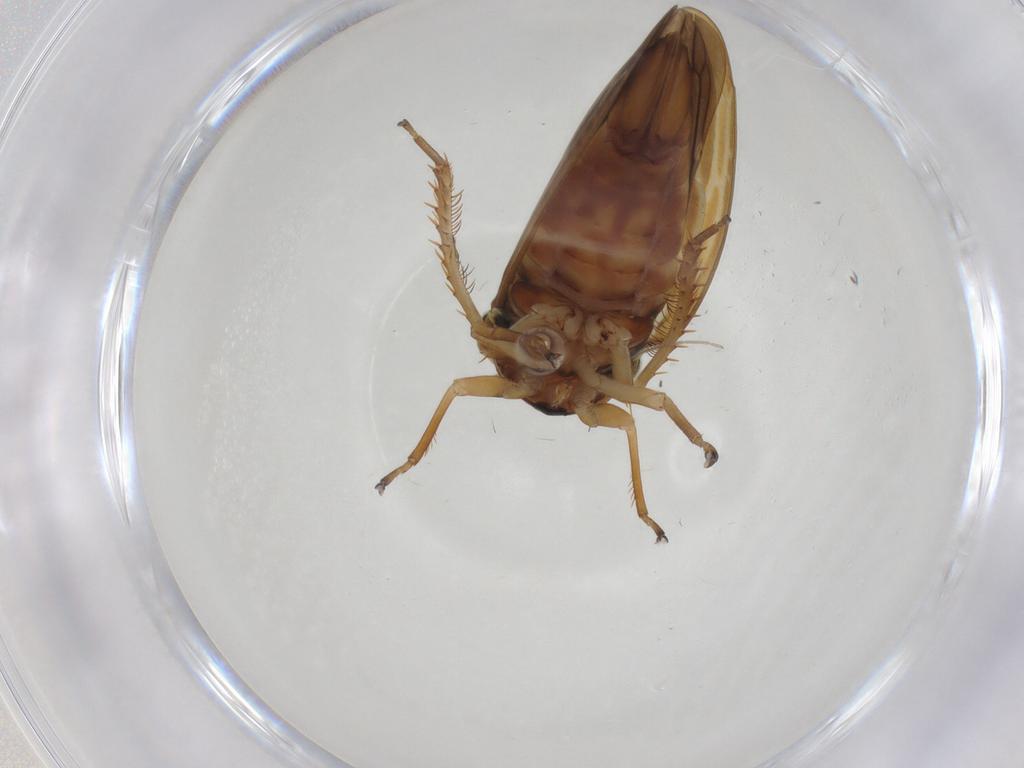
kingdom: Animalia
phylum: Arthropoda
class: Insecta
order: Hemiptera
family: Cicadellidae
